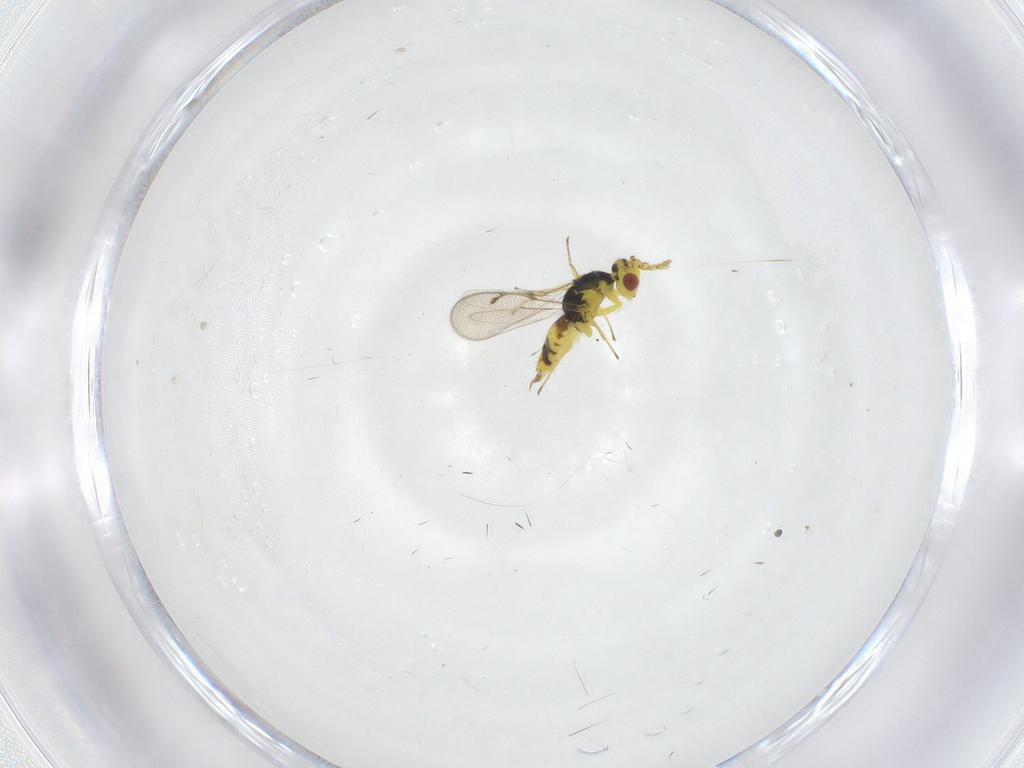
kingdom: Animalia
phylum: Arthropoda
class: Insecta
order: Hymenoptera
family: Eulophidae
